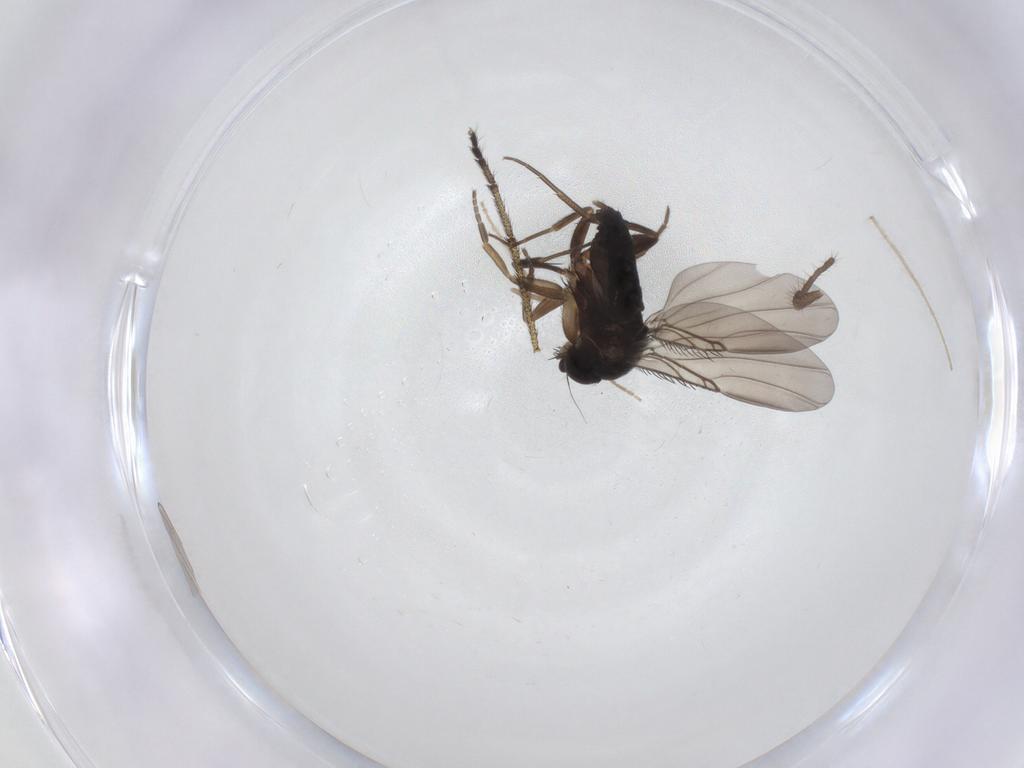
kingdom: Animalia
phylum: Arthropoda
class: Insecta
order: Diptera
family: Phoridae
